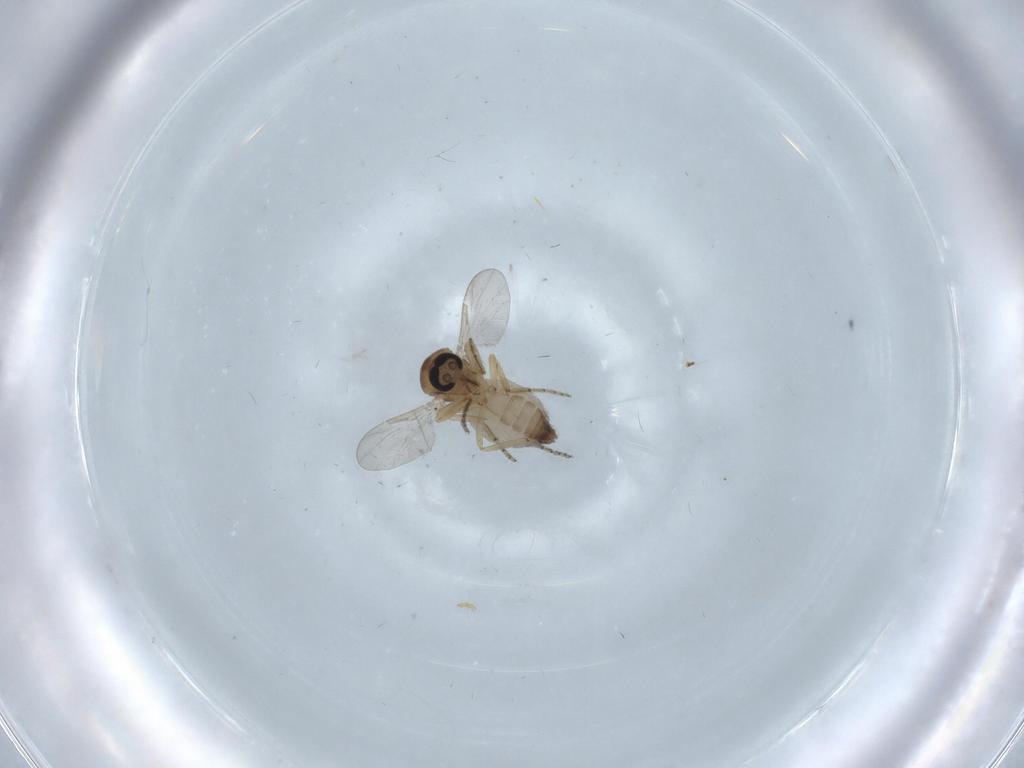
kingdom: Animalia
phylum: Arthropoda
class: Insecta
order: Diptera
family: Ceratopogonidae
